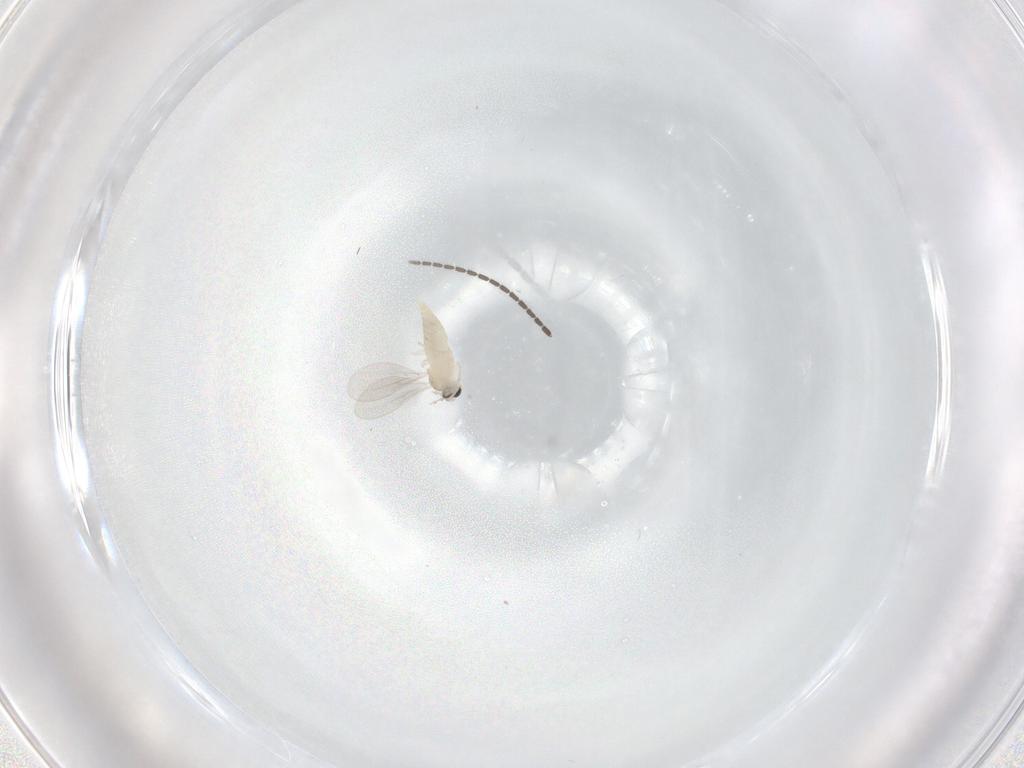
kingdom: Animalia
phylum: Arthropoda
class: Insecta
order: Diptera
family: Cecidomyiidae
